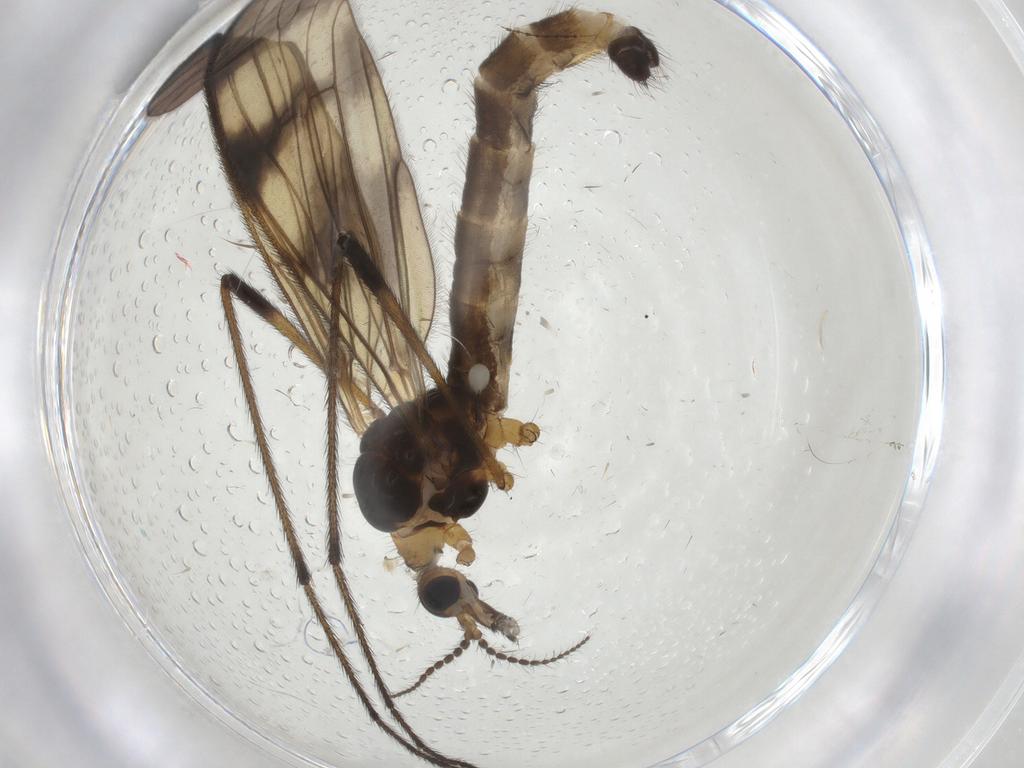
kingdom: Animalia
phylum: Arthropoda
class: Insecta
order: Diptera
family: Limoniidae
